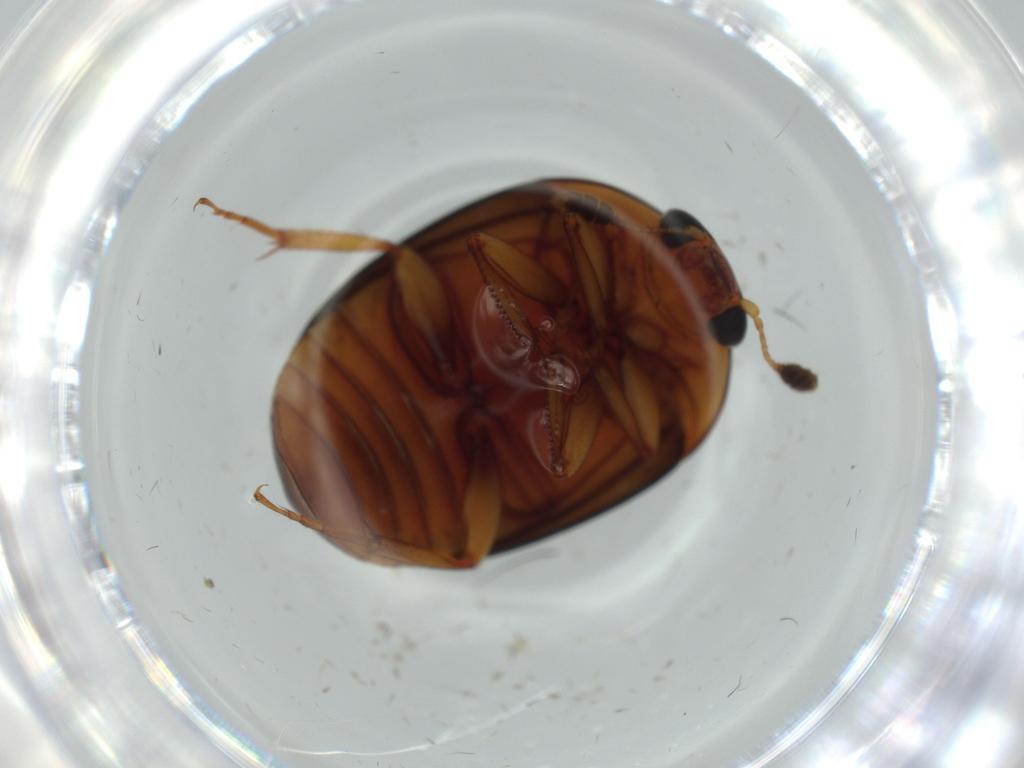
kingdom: Animalia
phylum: Arthropoda
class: Insecta
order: Coleoptera
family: Nitidulidae
